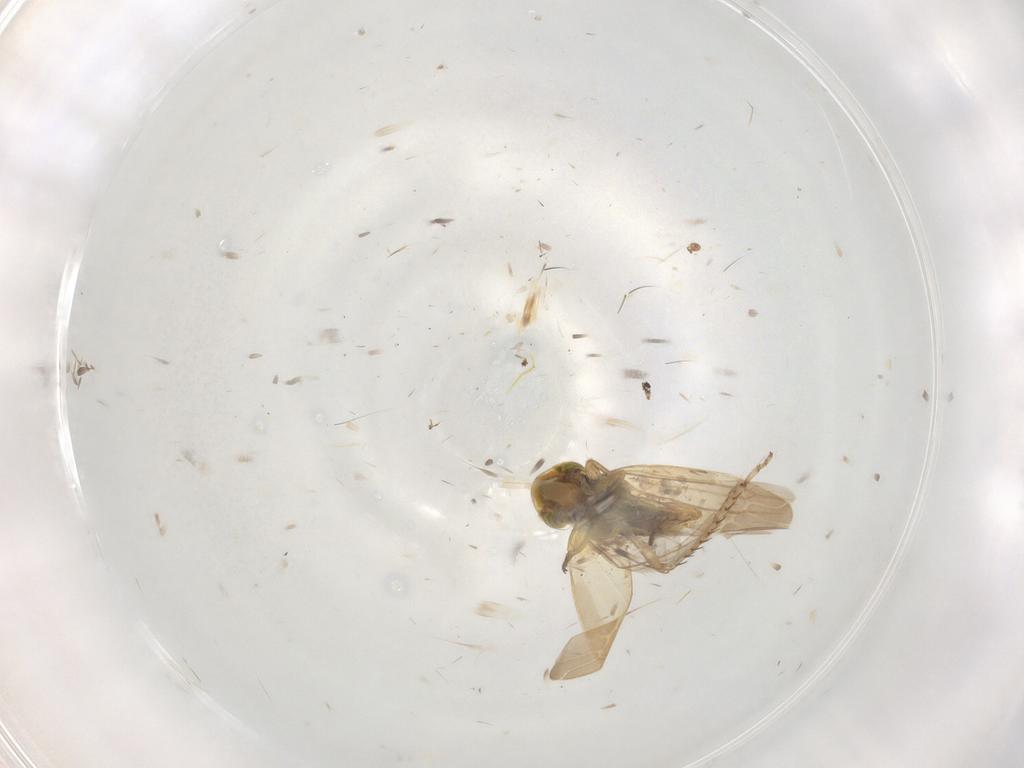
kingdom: Animalia
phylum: Arthropoda
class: Insecta
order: Hemiptera
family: Cicadellidae
